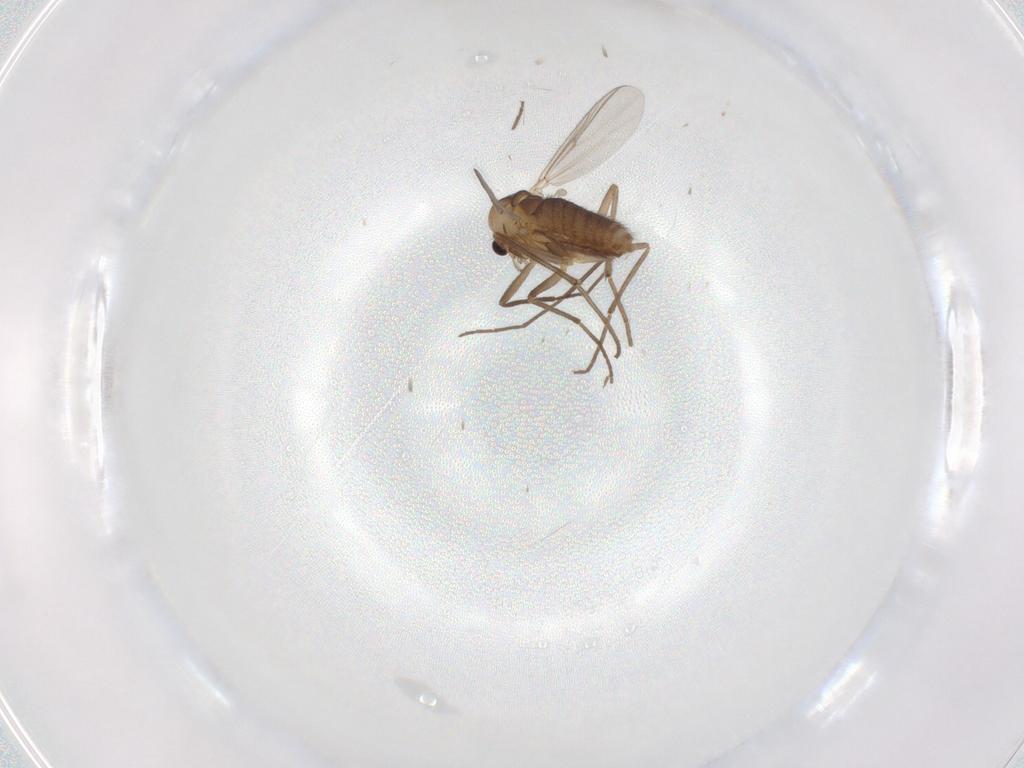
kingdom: Animalia
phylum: Arthropoda
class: Insecta
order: Diptera
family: Chironomidae
